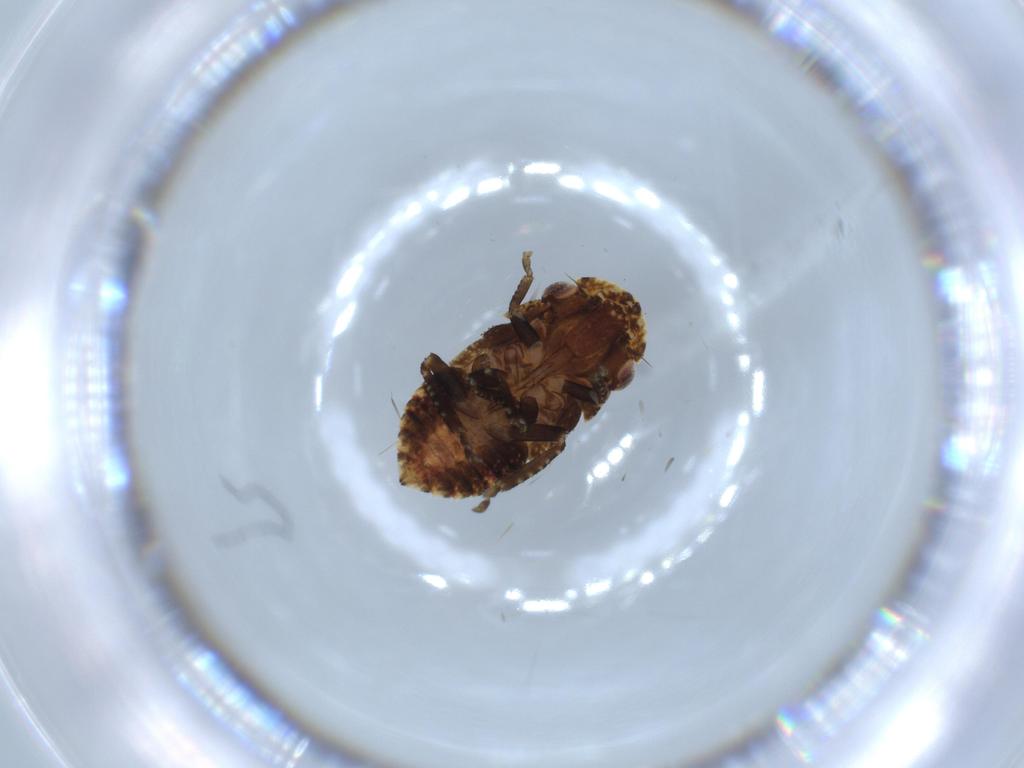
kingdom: Animalia
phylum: Arthropoda
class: Insecta
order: Hemiptera
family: Cicadellidae
